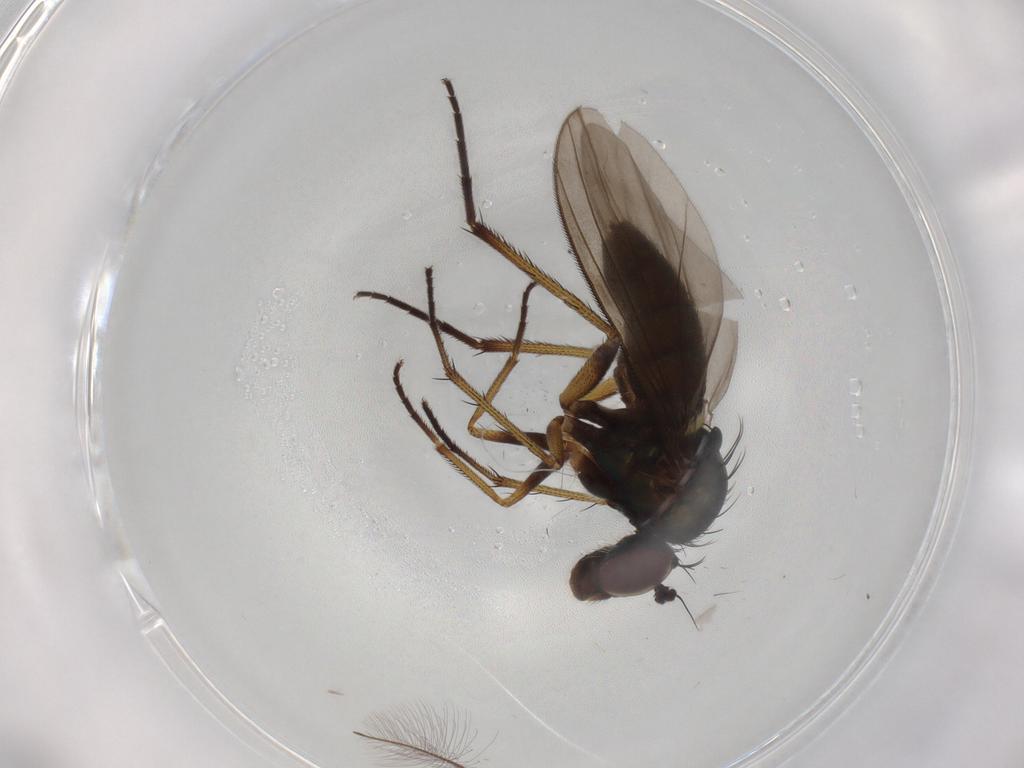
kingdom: Animalia
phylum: Arthropoda
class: Insecta
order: Diptera
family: Dolichopodidae
